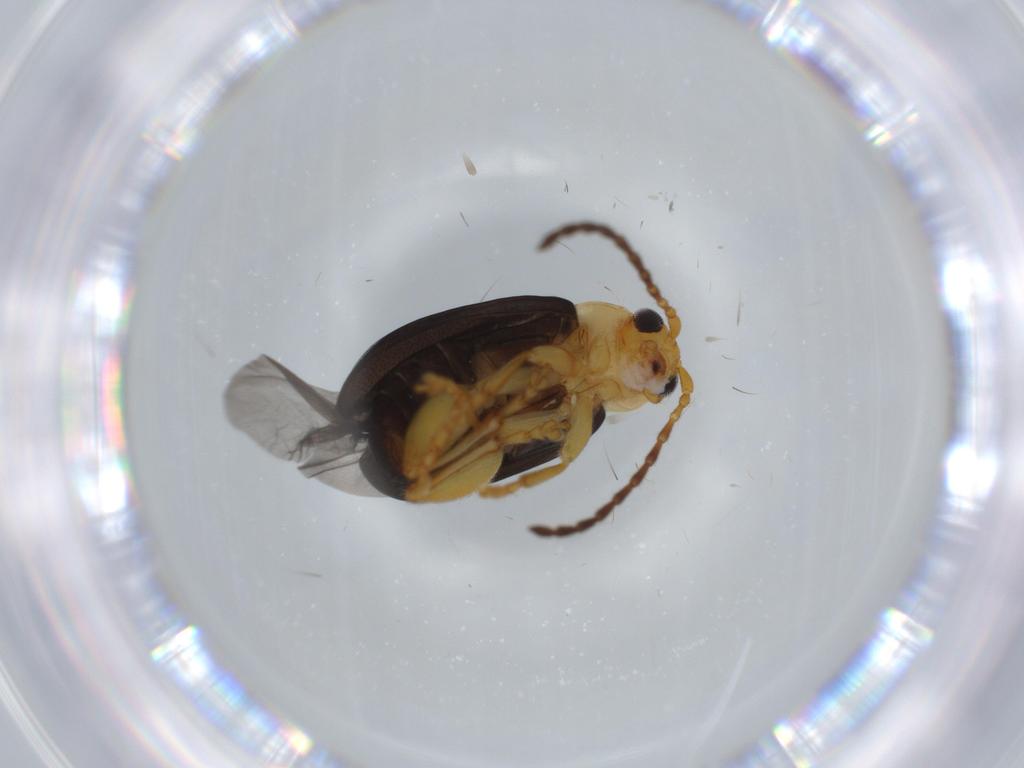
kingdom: Animalia
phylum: Arthropoda
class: Insecta
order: Coleoptera
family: Chrysomelidae
